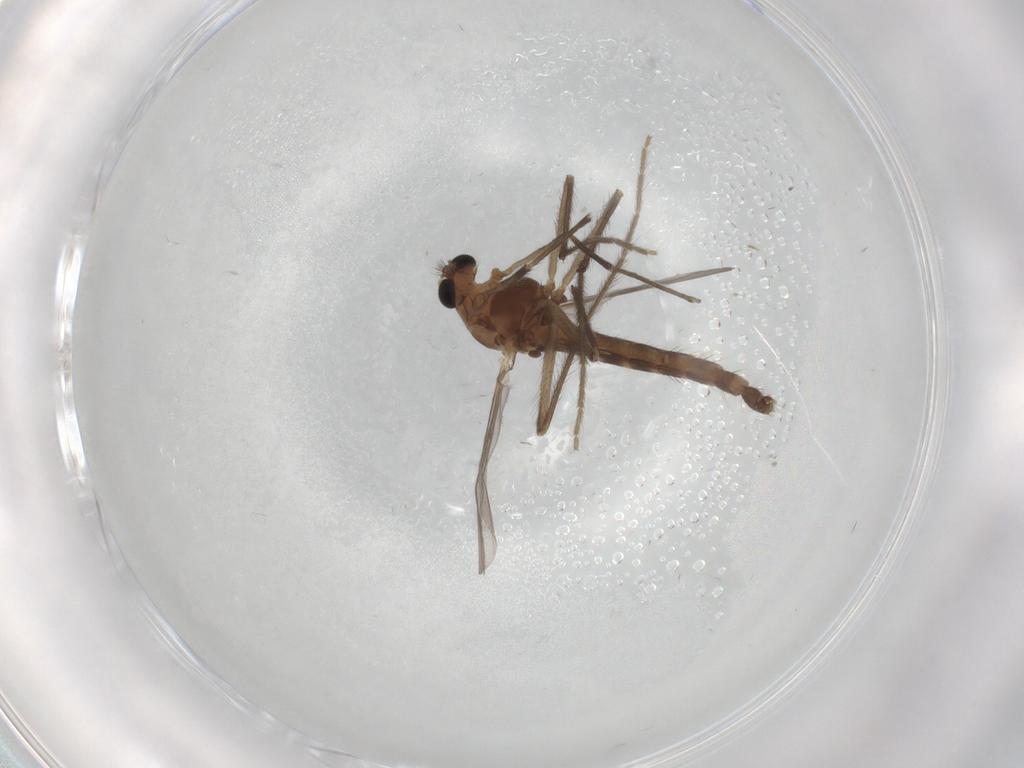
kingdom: Animalia
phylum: Arthropoda
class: Insecta
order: Diptera
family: Chironomidae
